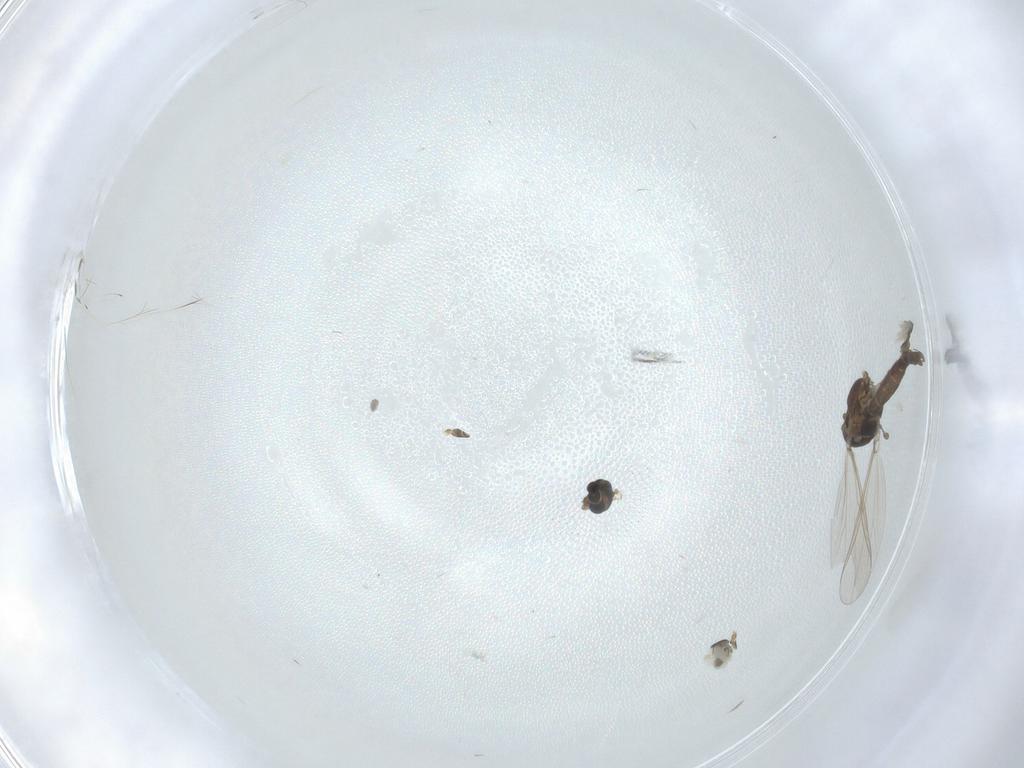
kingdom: Animalia
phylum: Arthropoda
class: Insecta
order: Diptera
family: Chironomidae
